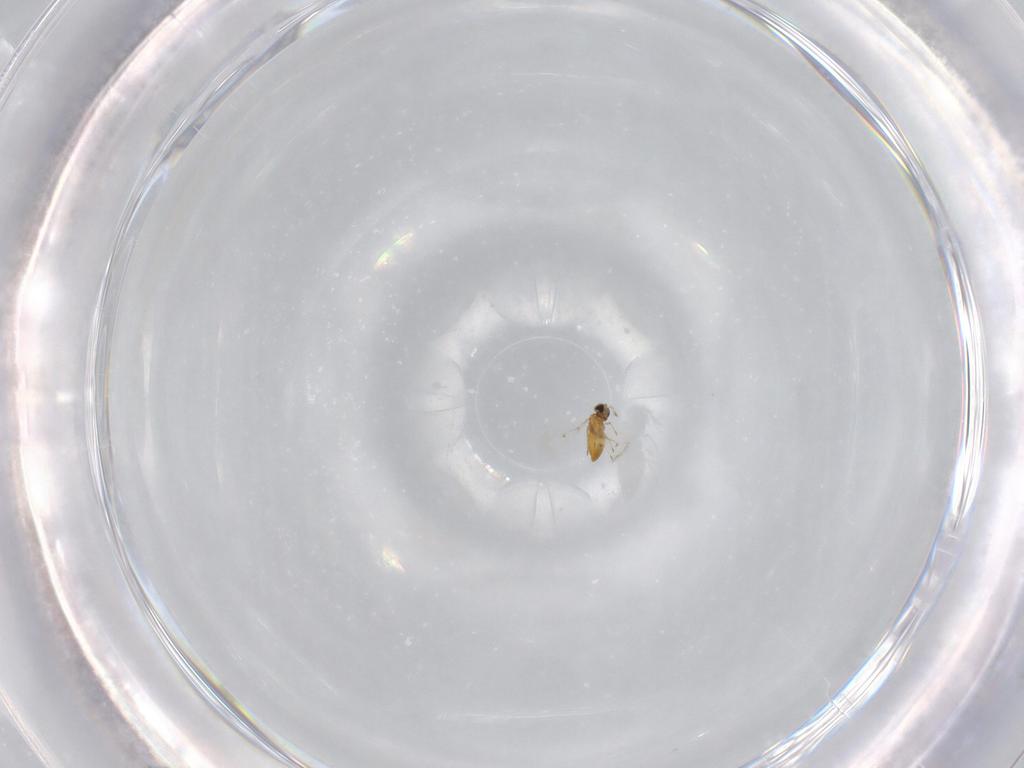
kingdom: Animalia
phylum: Arthropoda
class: Insecta
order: Hymenoptera
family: Trichogrammatidae
